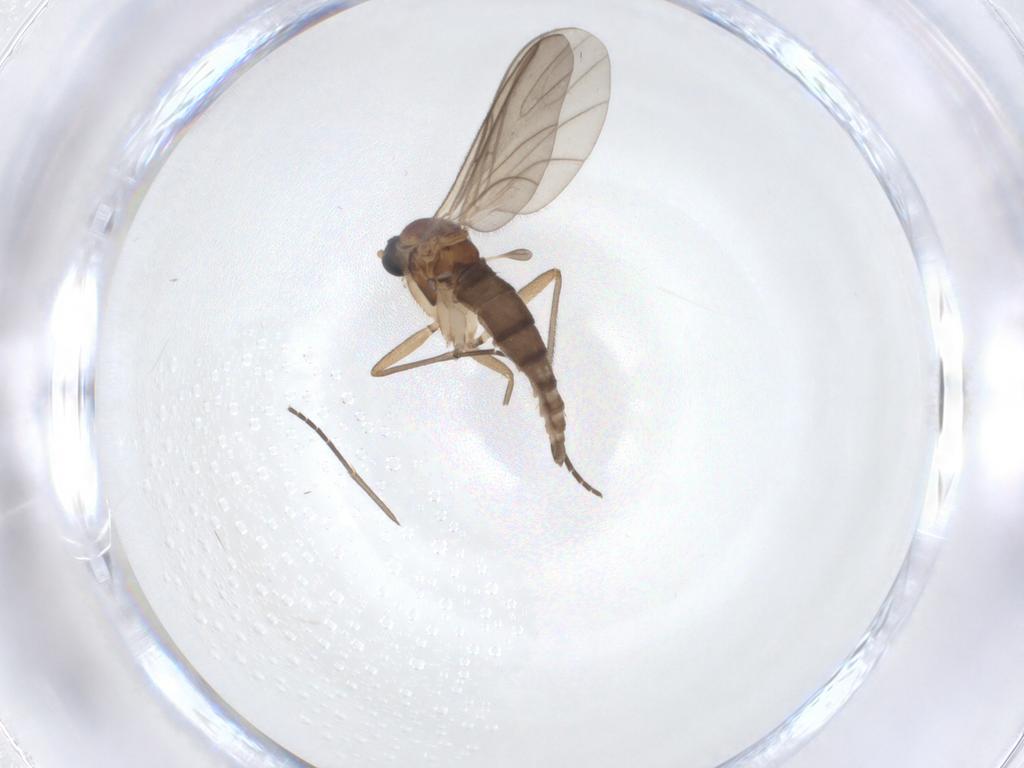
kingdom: Animalia
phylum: Arthropoda
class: Insecta
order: Diptera
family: Sciaridae
